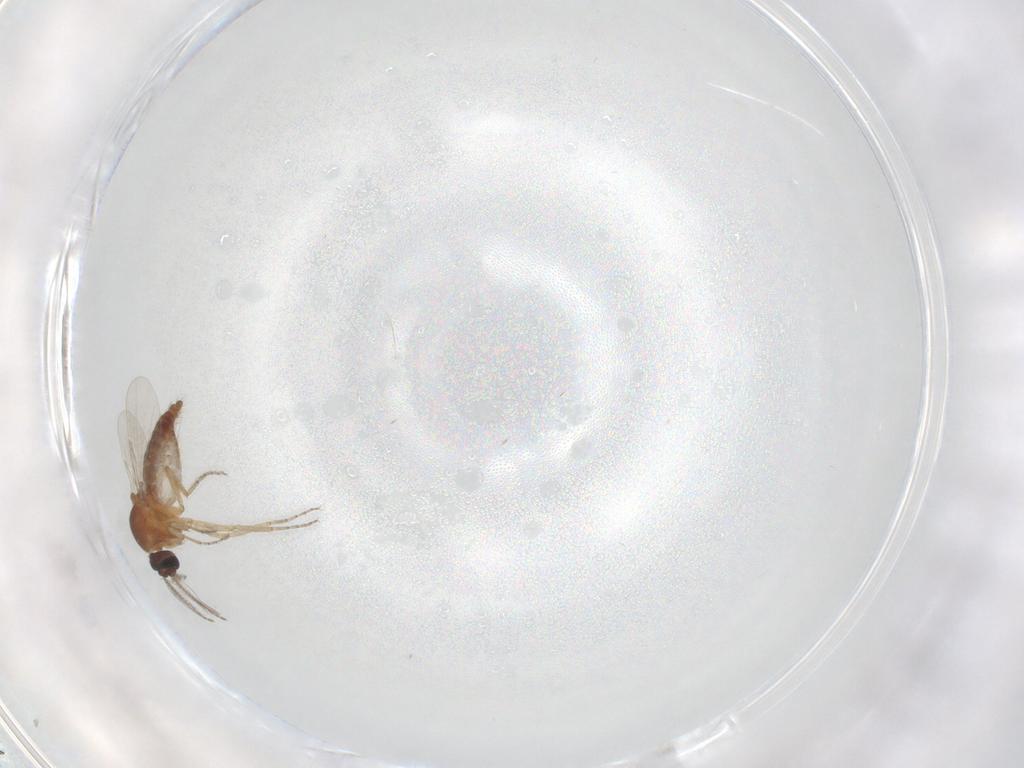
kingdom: Animalia
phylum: Arthropoda
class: Insecta
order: Diptera
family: Ceratopogonidae
